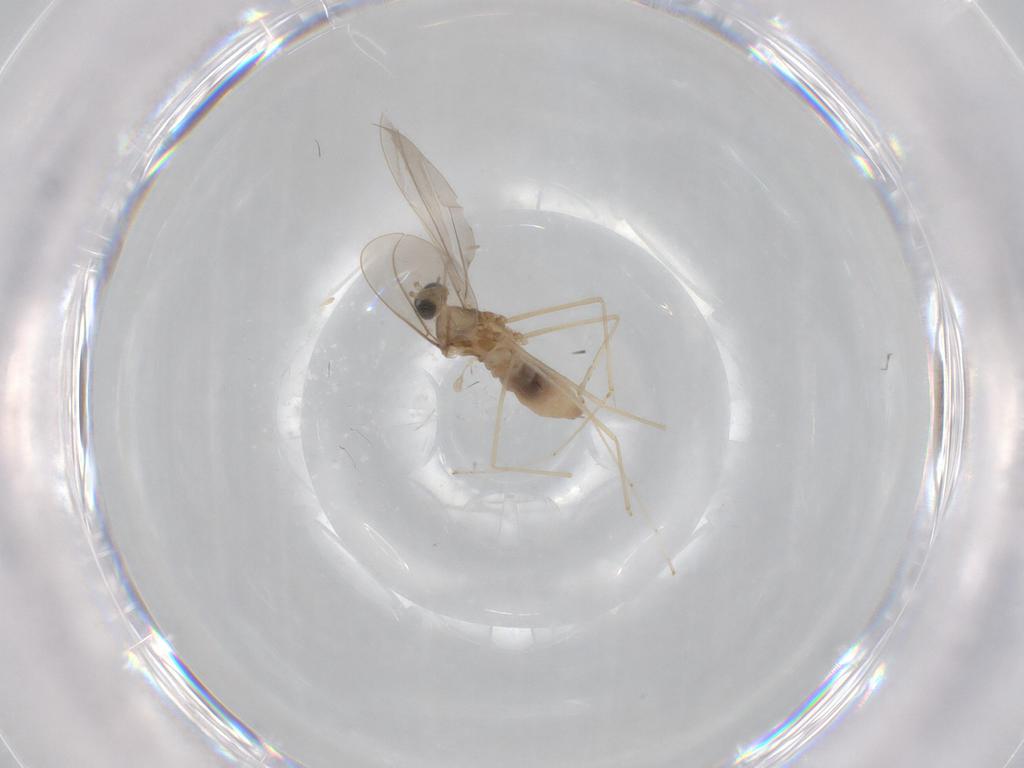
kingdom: Animalia
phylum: Arthropoda
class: Insecta
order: Diptera
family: Cecidomyiidae
